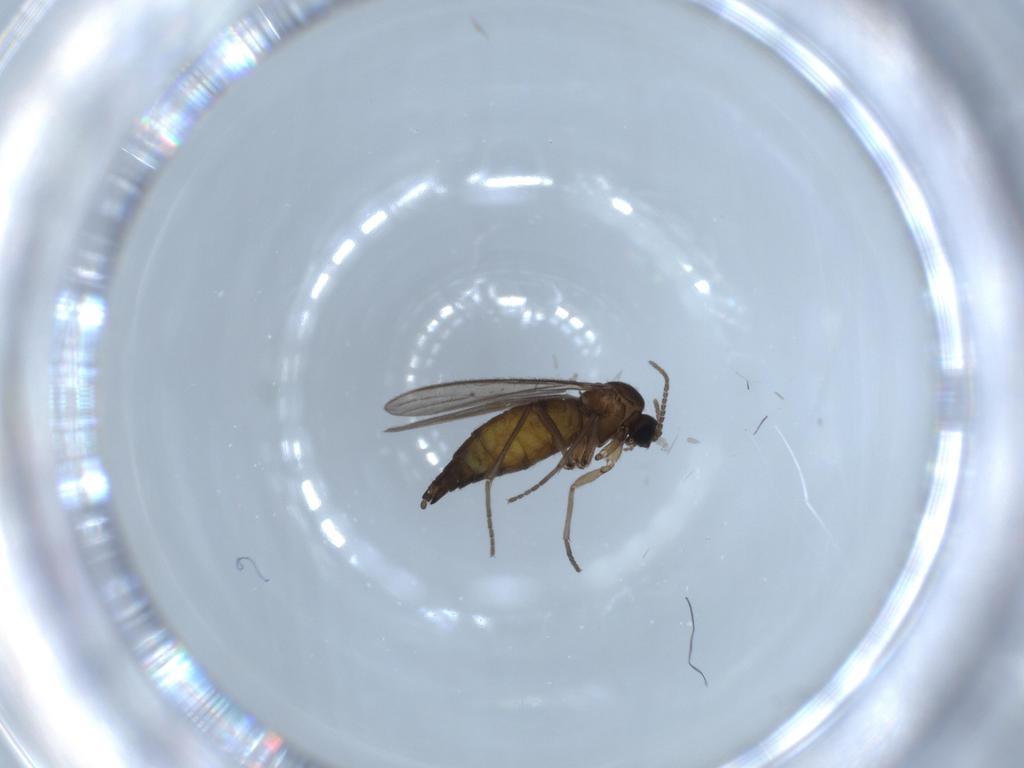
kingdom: Animalia
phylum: Arthropoda
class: Insecta
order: Diptera
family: Sciaridae
